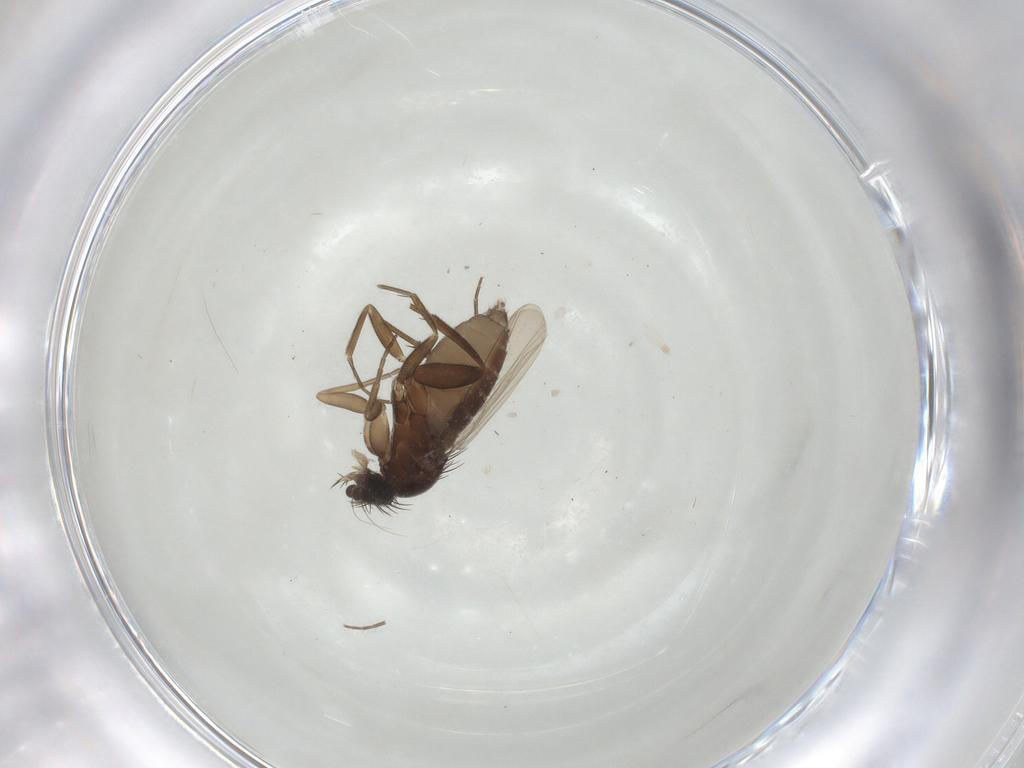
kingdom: Animalia
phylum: Arthropoda
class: Insecta
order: Diptera
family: Phoridae
